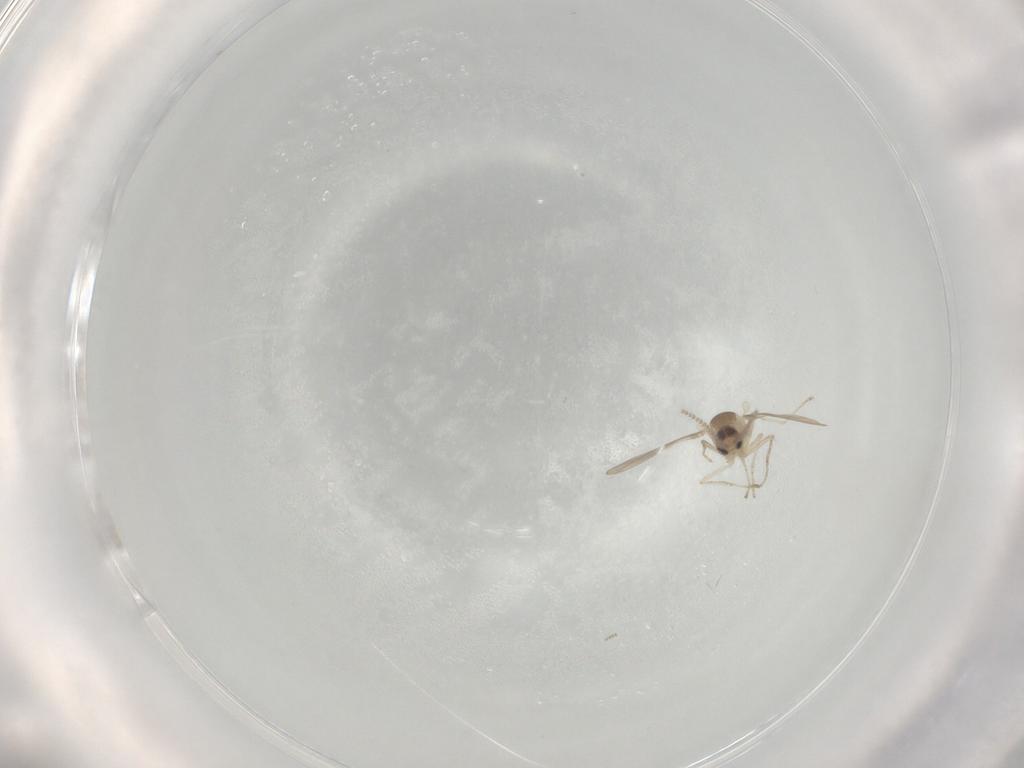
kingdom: Animalia
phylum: Arthropoda
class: Insecta
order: Diptera
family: Cecidomyiidae
